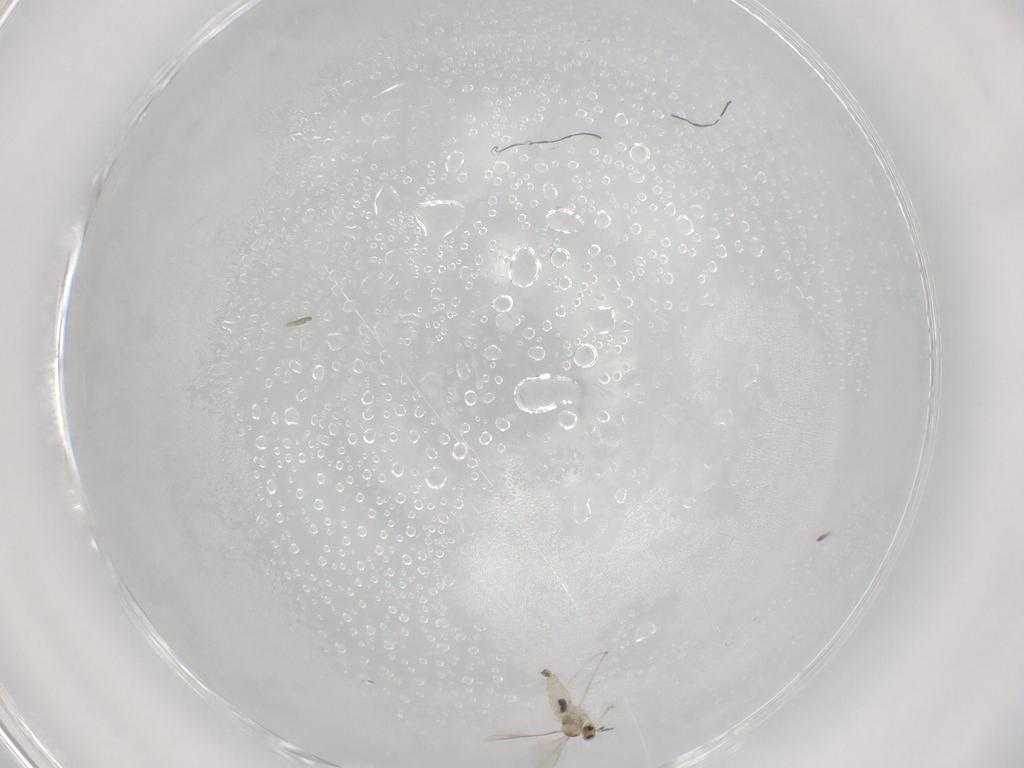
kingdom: Animalia
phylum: Arthropoda
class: Insecta
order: Diptera
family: Cecidomyiidae
